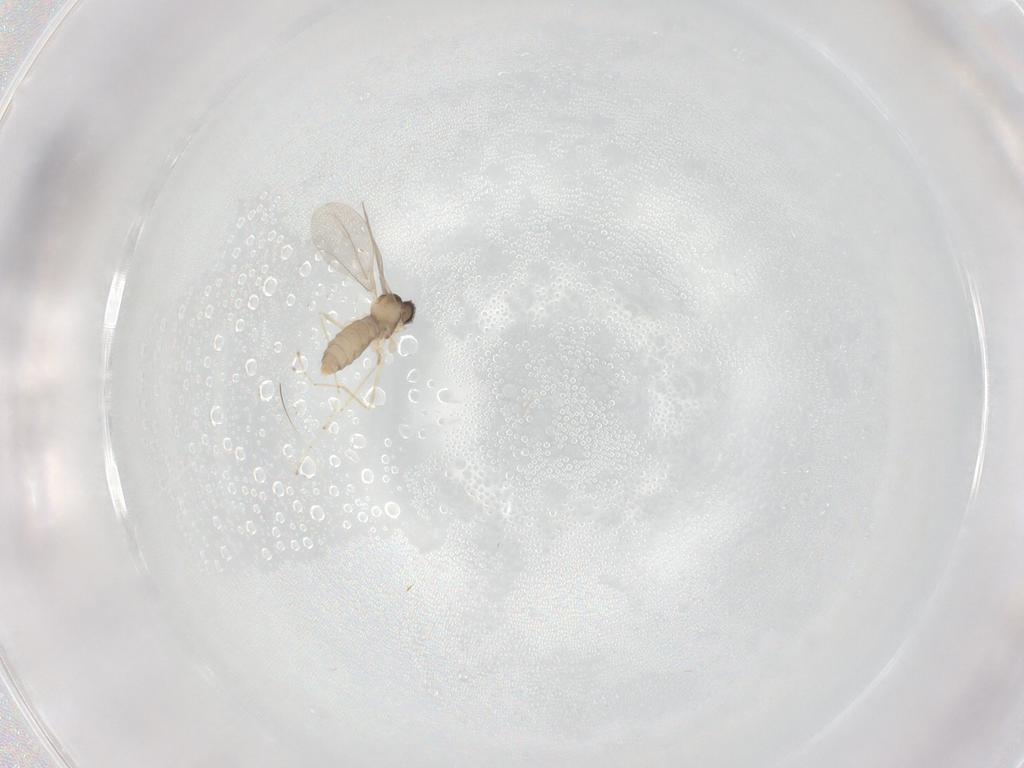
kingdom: Animalia
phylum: Arthropoda
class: Insecta
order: Diptera
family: Cecidomyiidae
